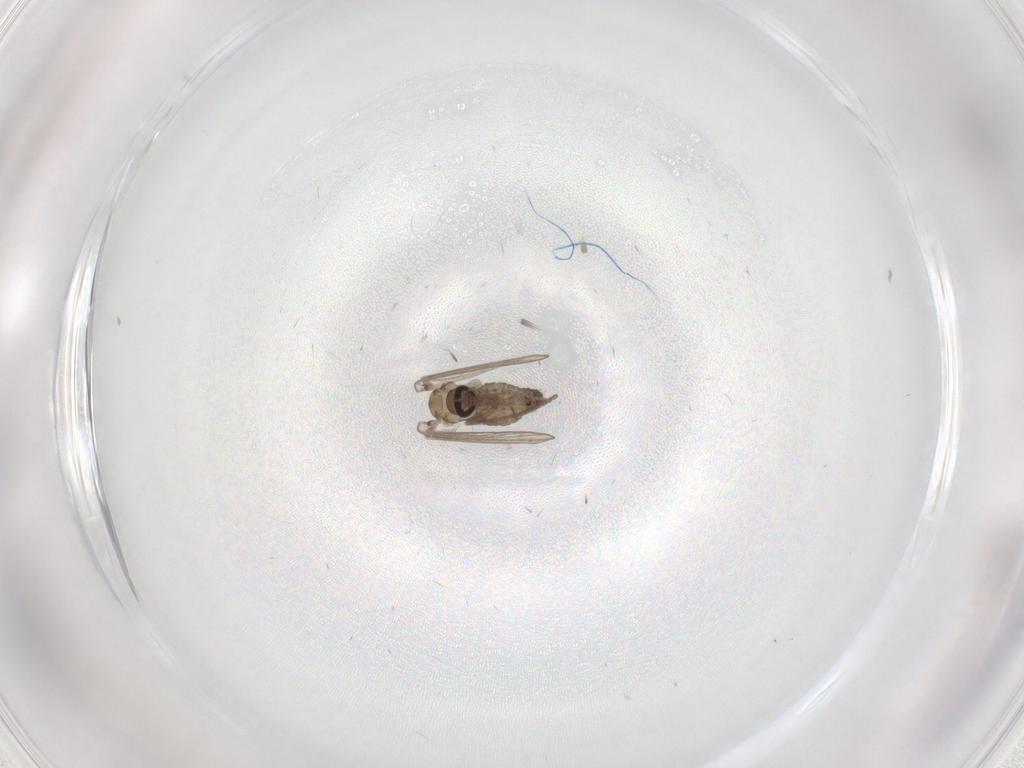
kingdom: Animalia
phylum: Arthropoda
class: Insecta
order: Diptera
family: Psychodidae
